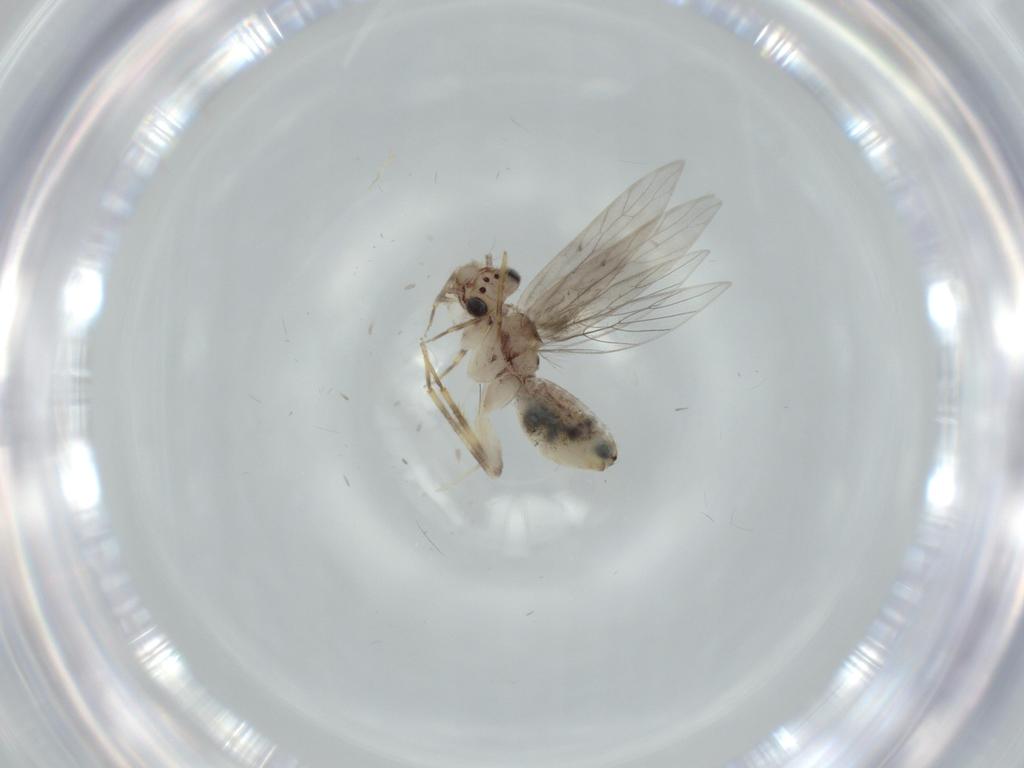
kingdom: Animalia
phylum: Arthropoda
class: Insecta
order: Psocodea
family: Lepidopsocidae
